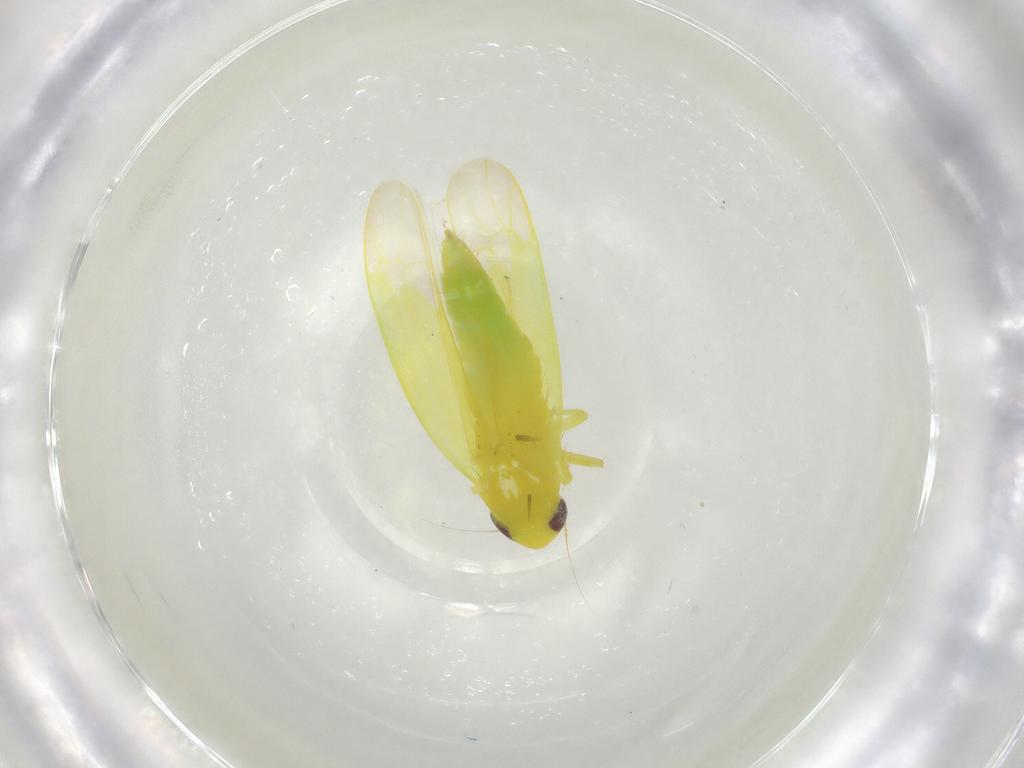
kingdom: Animalia
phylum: Arthropoda
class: Insecta
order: Hemiptera
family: Cicadellidae
